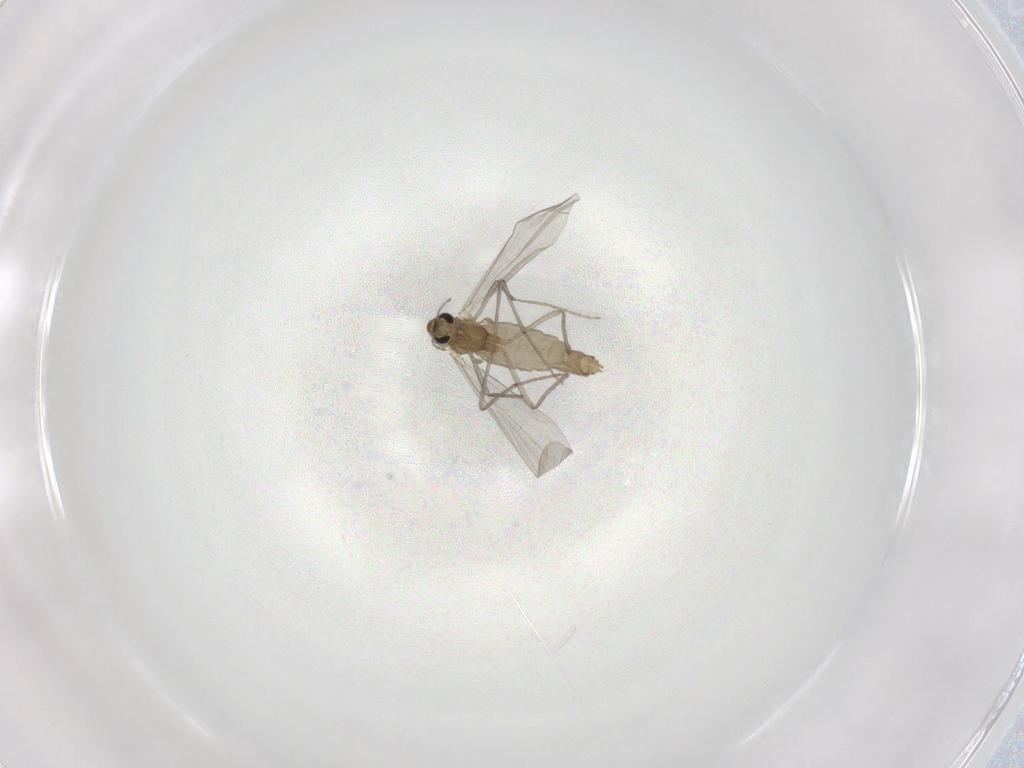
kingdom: Animalia
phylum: Arthropoda
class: Insecta
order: Diptera
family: Chironomidae
